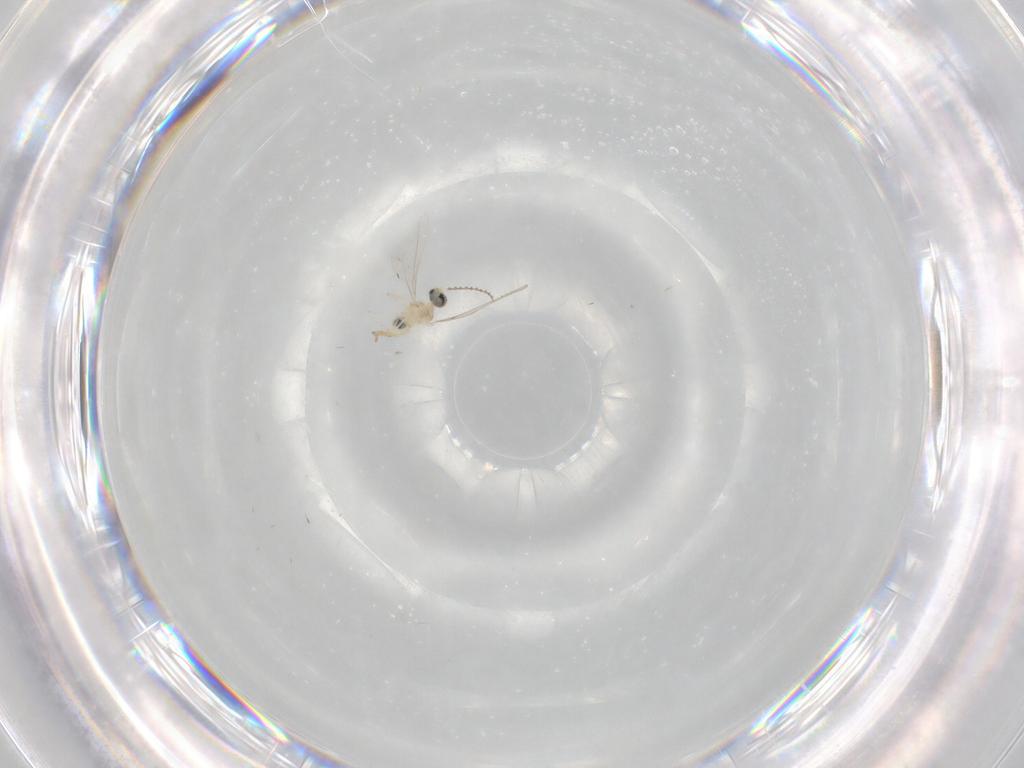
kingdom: Animalia
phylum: Arthropoda
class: Insecta
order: Diptera
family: Cecidomyiidae
